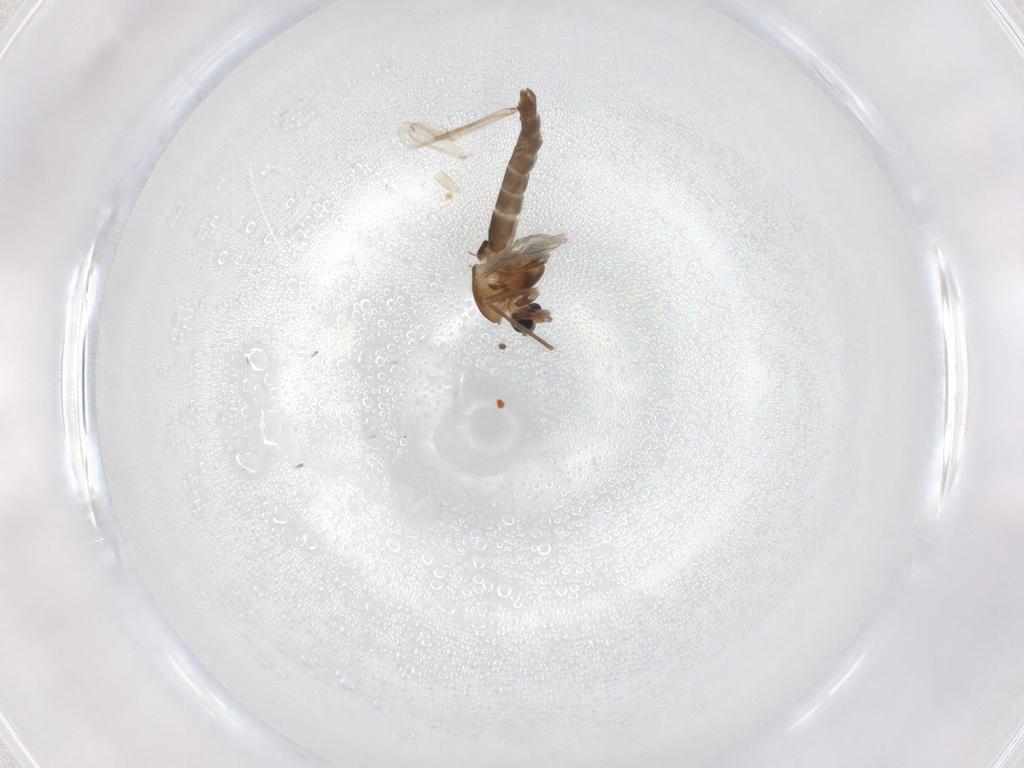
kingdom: Animalia
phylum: Arthropoda
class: Insecta
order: Diptera
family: Chironomidae
